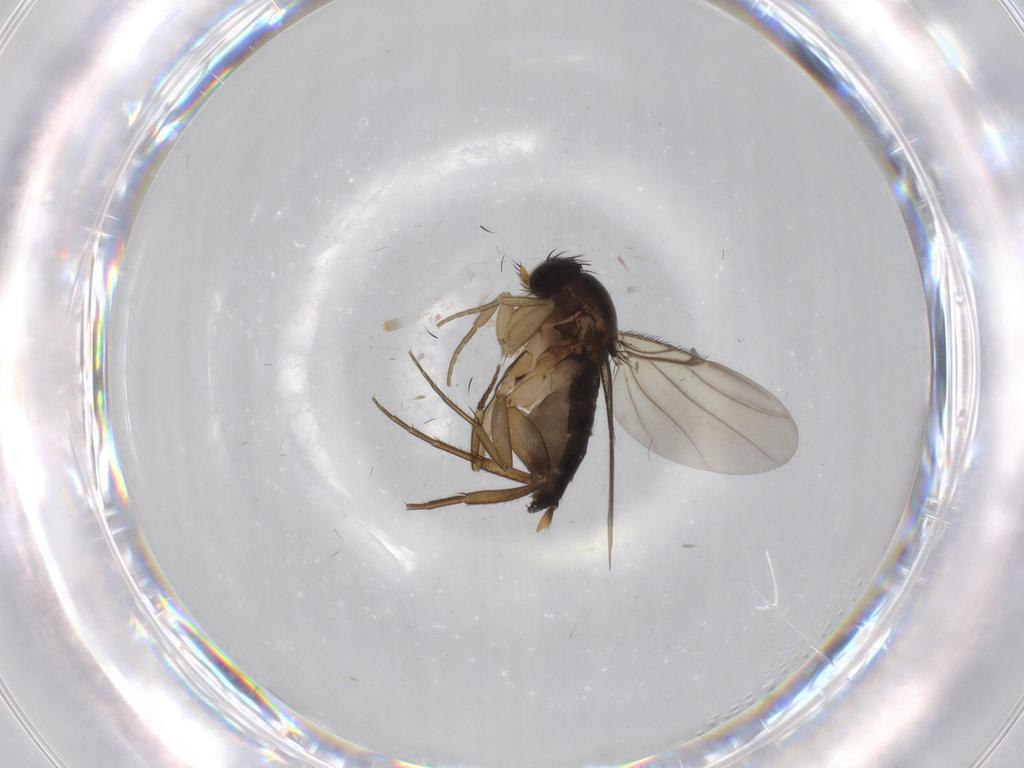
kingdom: Animalia
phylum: Arthropoda
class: Insecta
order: Diptera
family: Phoridae
